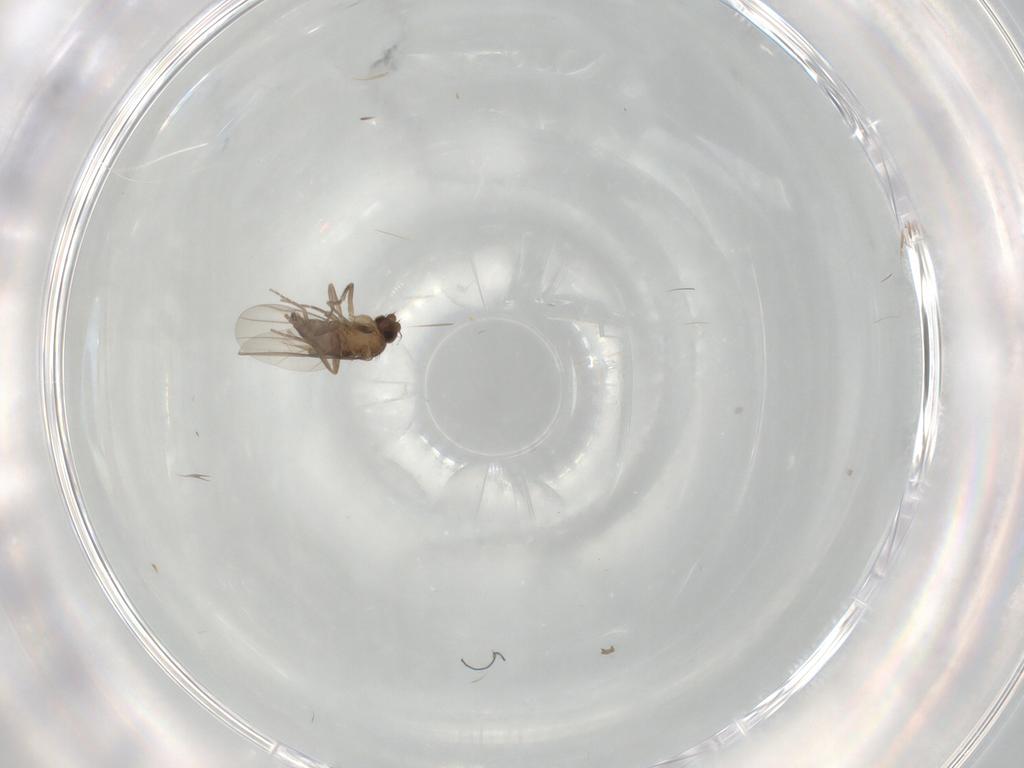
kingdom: Animalia
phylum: Arthropoda
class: Insecta
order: Diptera
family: Phoridae
